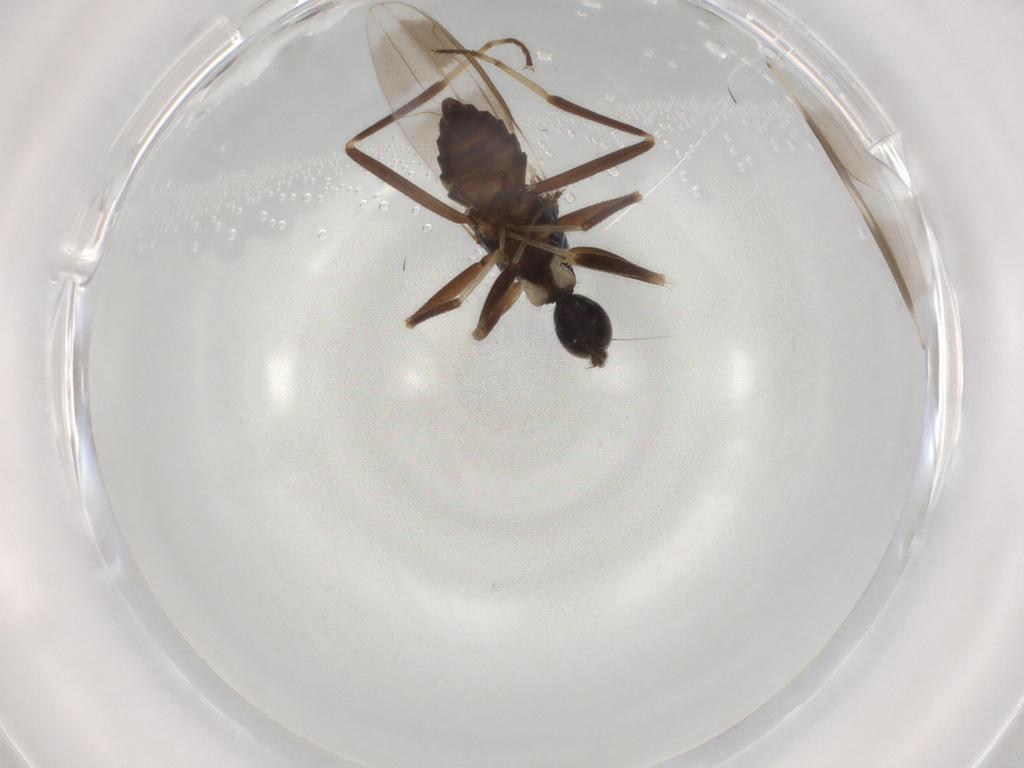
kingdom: Animalia
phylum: Arthropoda
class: Insecta
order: Diptera
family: Hybotidae
